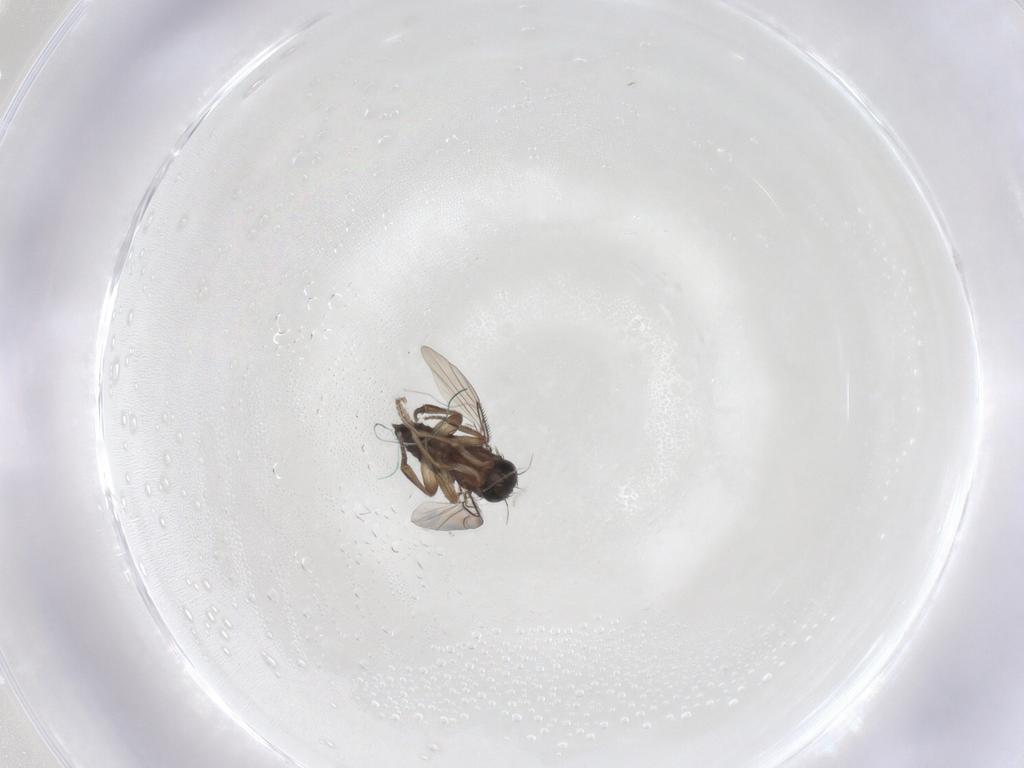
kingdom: Animalia
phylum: Arthropoda
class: Insecta
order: Diptera
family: Phoridae
